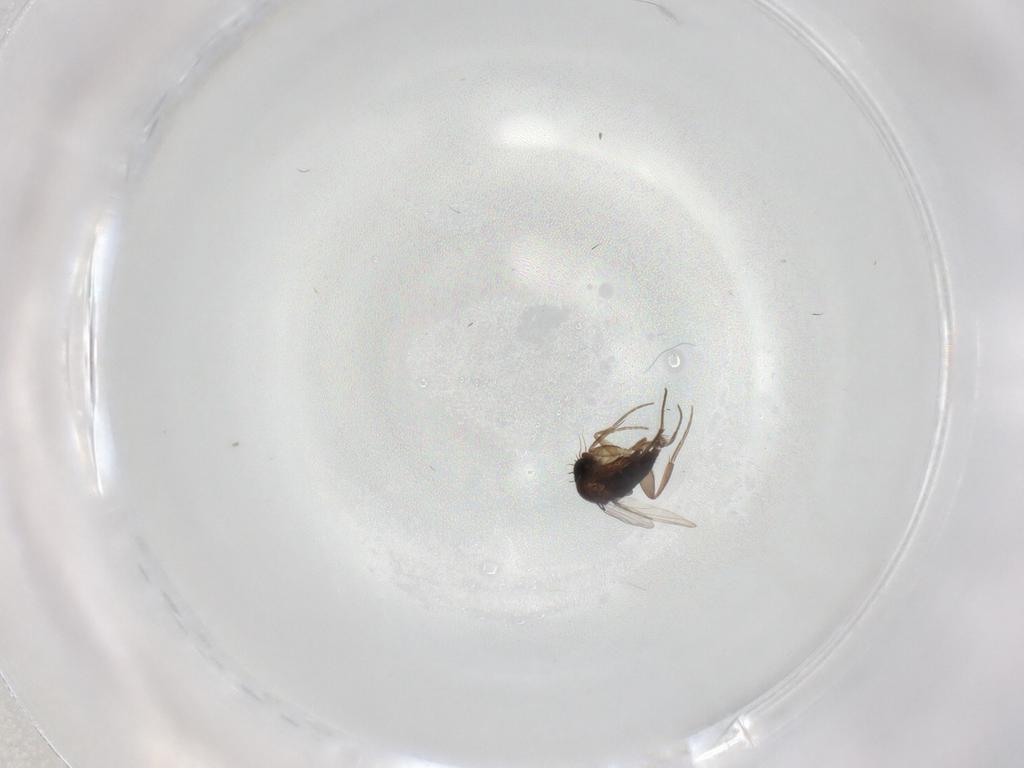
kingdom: Animalia
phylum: Arthropoda
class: Insecta
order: Diptera
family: Phoridae
